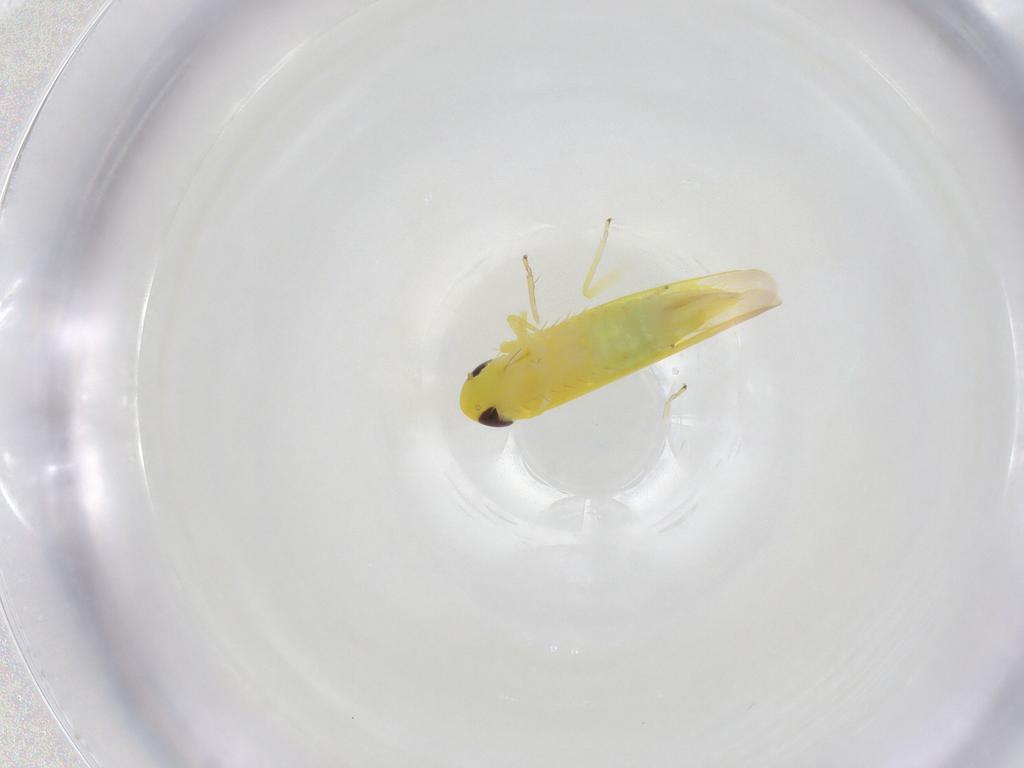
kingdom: Animalia
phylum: Arthropoda
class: Insecta
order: Hemiptera
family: Cicadellidae
